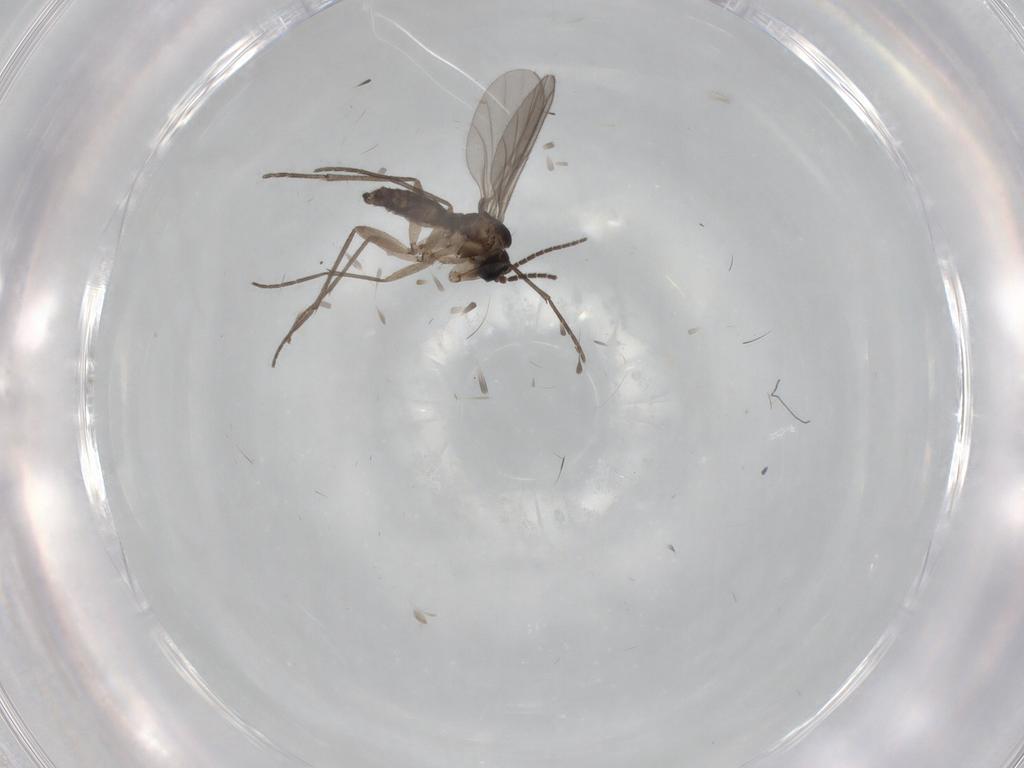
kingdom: Animalia
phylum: Arthropoda
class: Insecta
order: Diptera
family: Sciaridae
